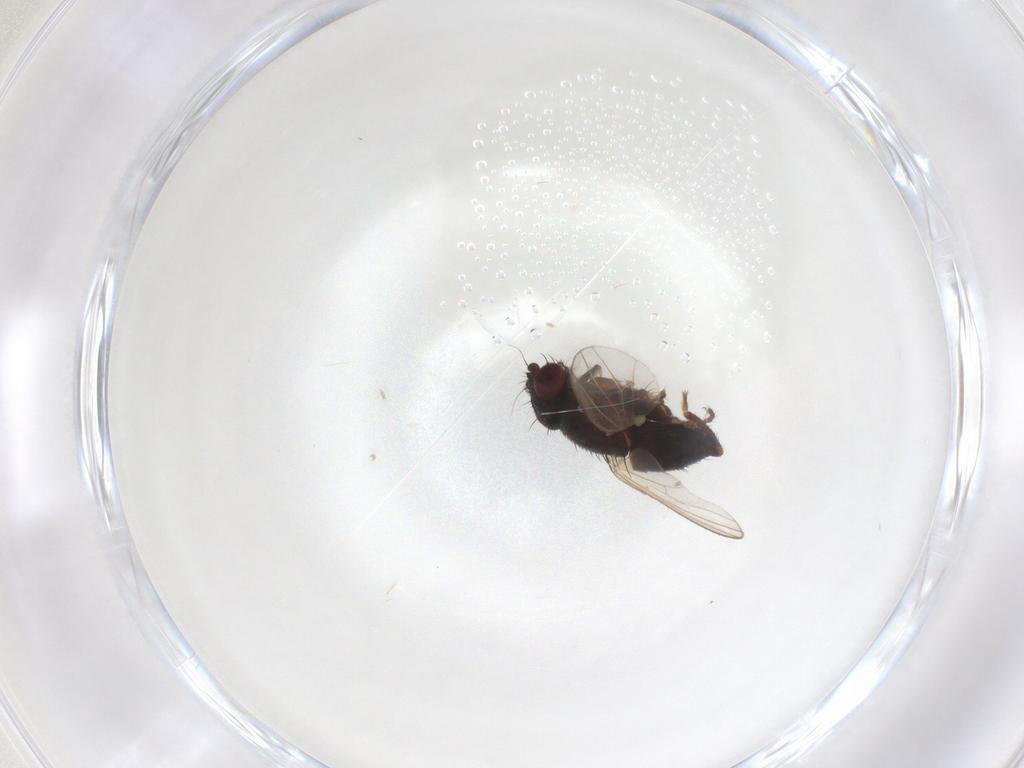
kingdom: Animalia
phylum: Arthropoda
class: Insecta
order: Diptera
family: Milichiidae
